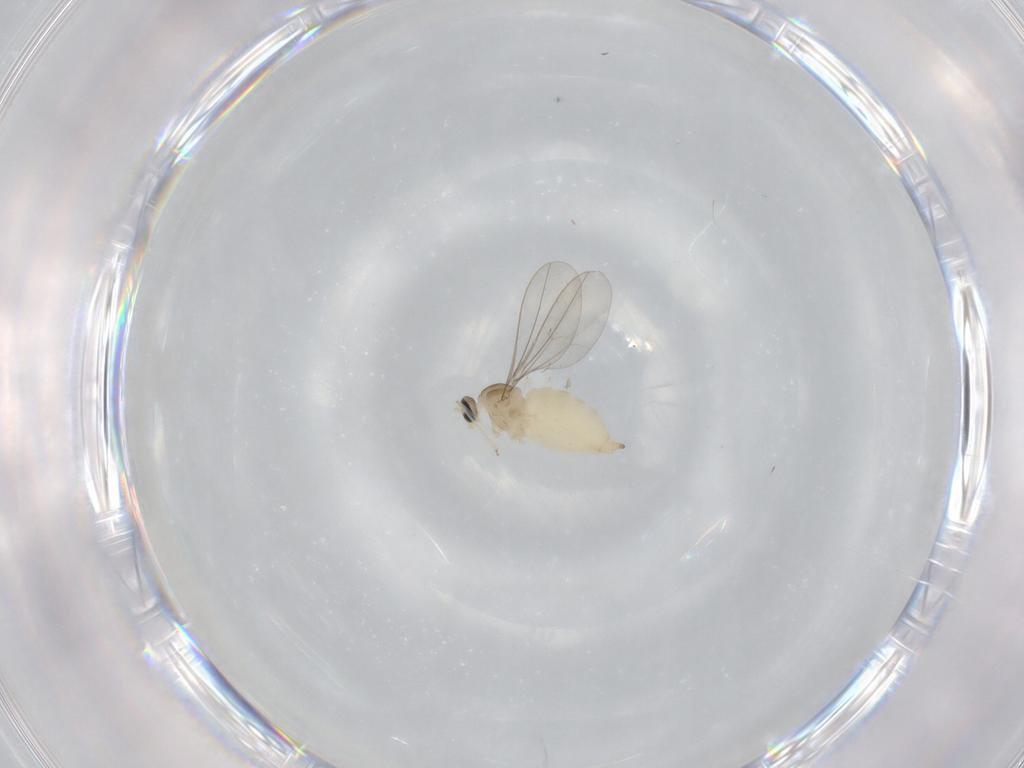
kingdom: Animalia
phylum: Arthropoda
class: Insecta
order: Diptera
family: Cecidomyiidae
